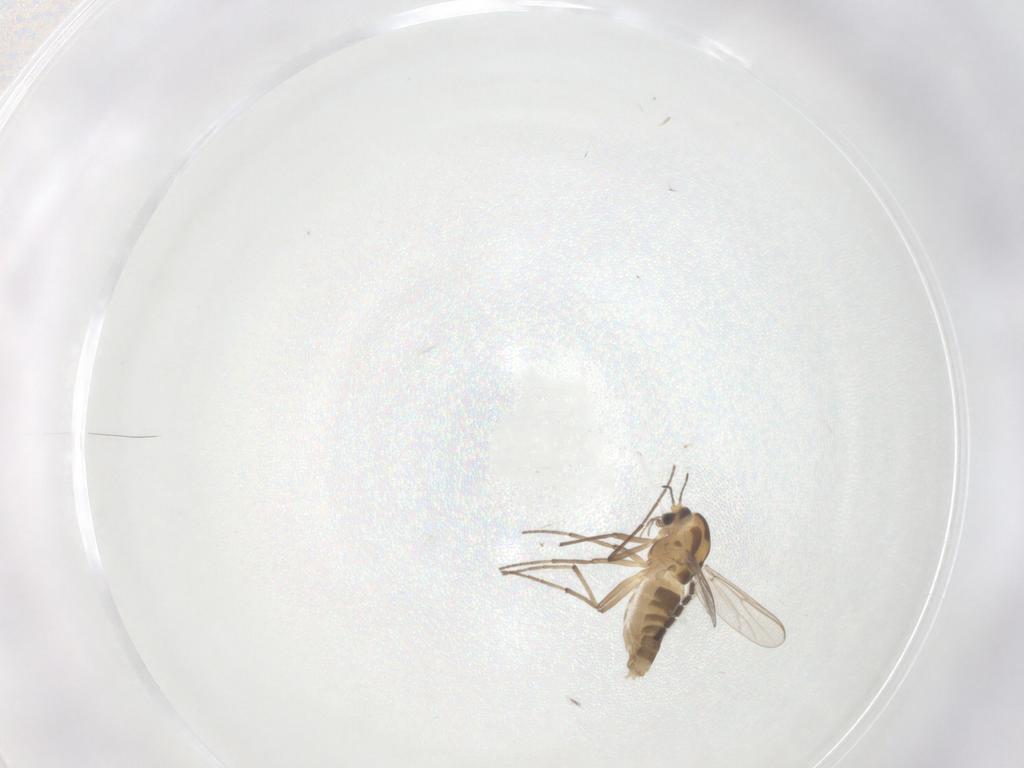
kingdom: Animalia
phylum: Arthropoda
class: Insecta
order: Diptera
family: Sciaridae
